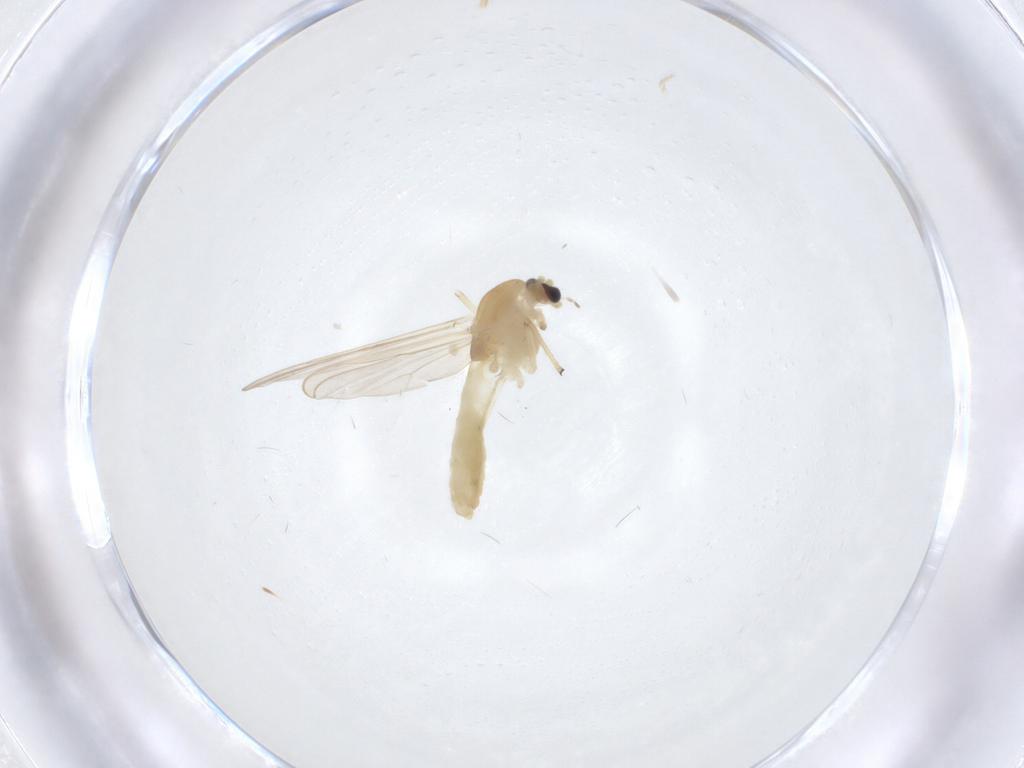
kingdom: Animalia
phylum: Arthropoda
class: Insecta
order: Diptera
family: Chironomidae
